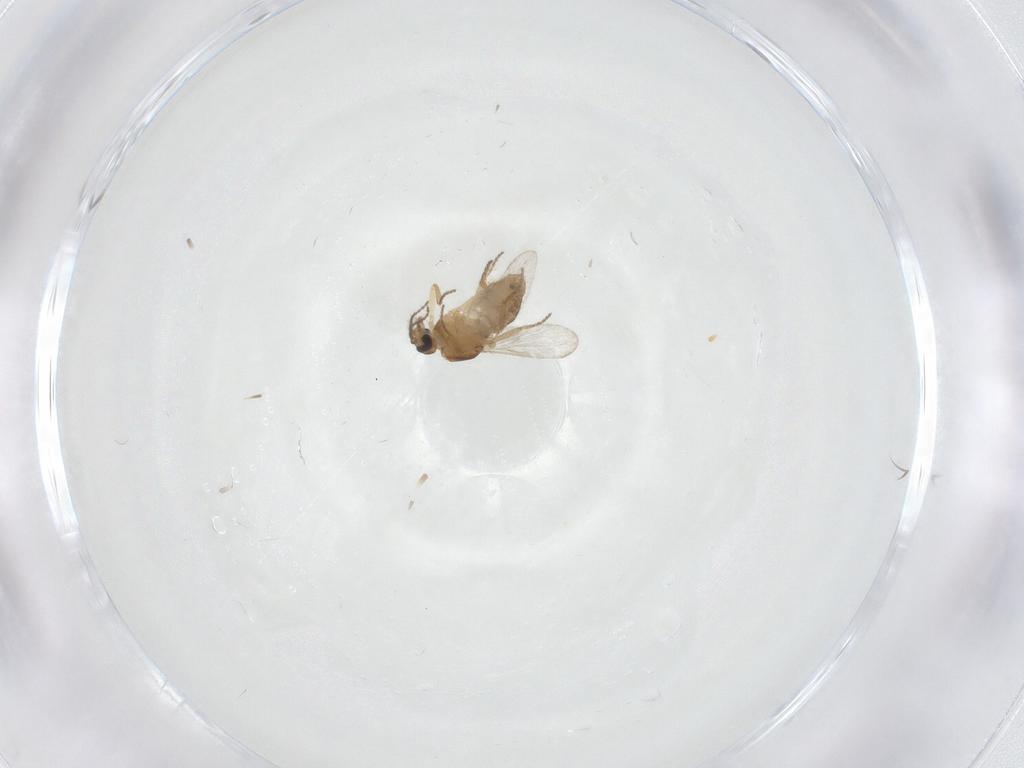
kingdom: Animalia
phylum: Arthropoda
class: Insecta
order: Diptera
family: Ceratopogonidae
